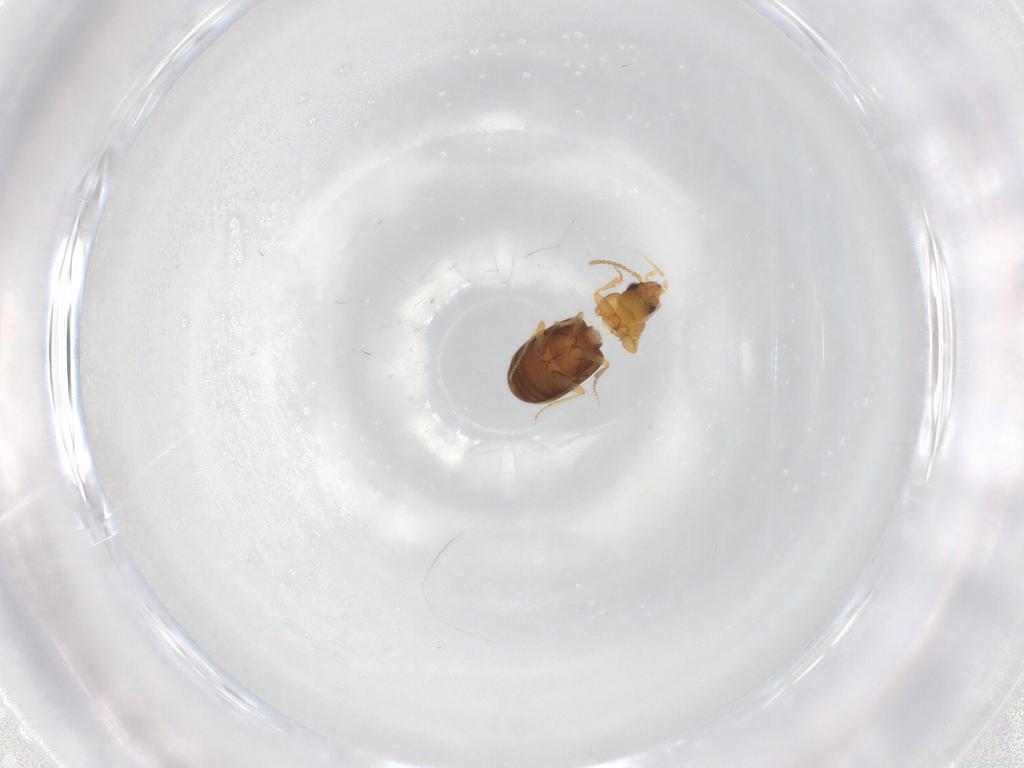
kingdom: Animalia
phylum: Arthropoda
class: Insecta
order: Coleoptera
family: Carabidae
